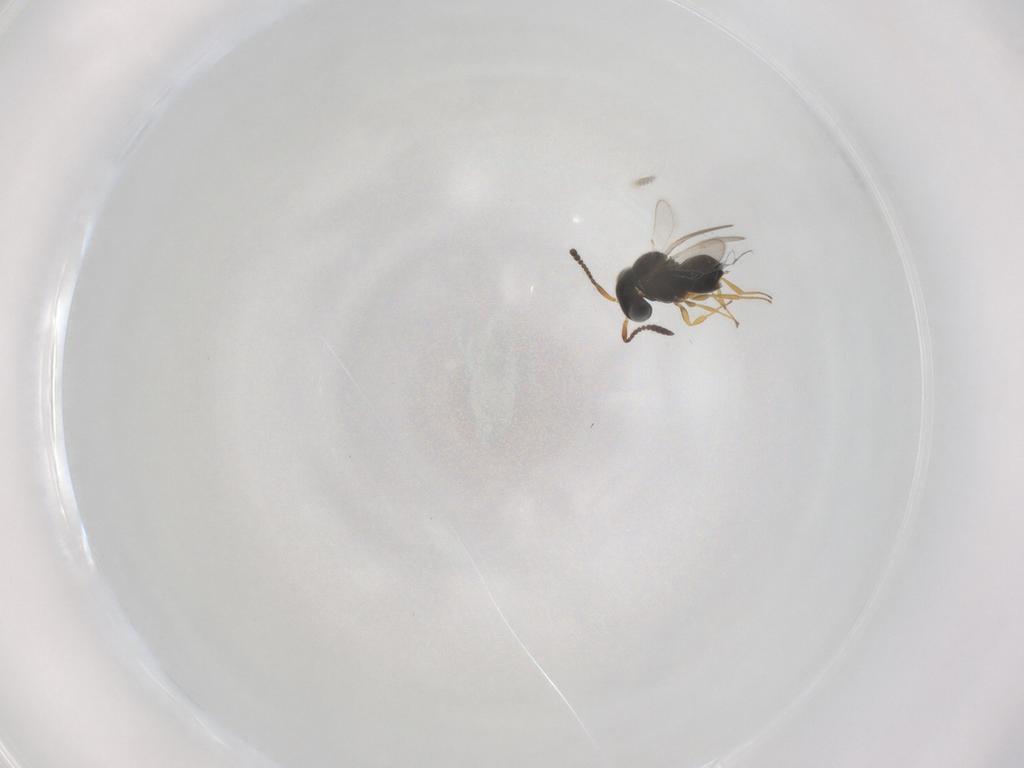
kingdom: Animalia
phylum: Arthropoda
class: Insecta
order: Hymenoptera
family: Scelionidae
